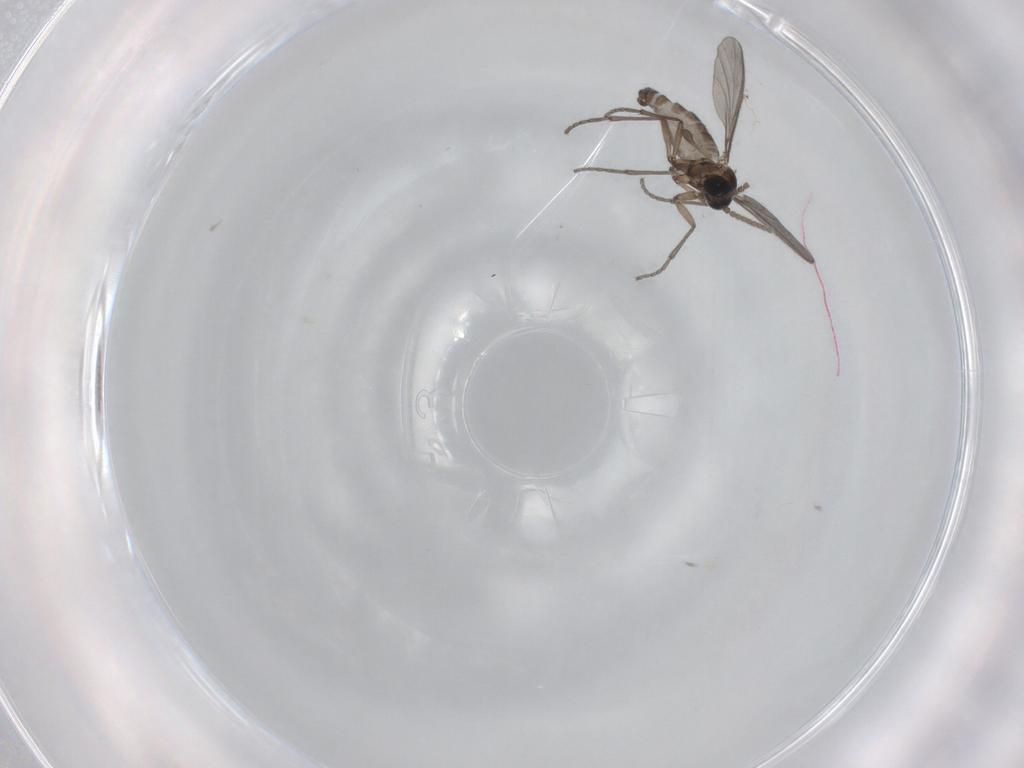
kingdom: Animalia
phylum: Arthropoda
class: Insecta
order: Diptera
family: Sciaridae
